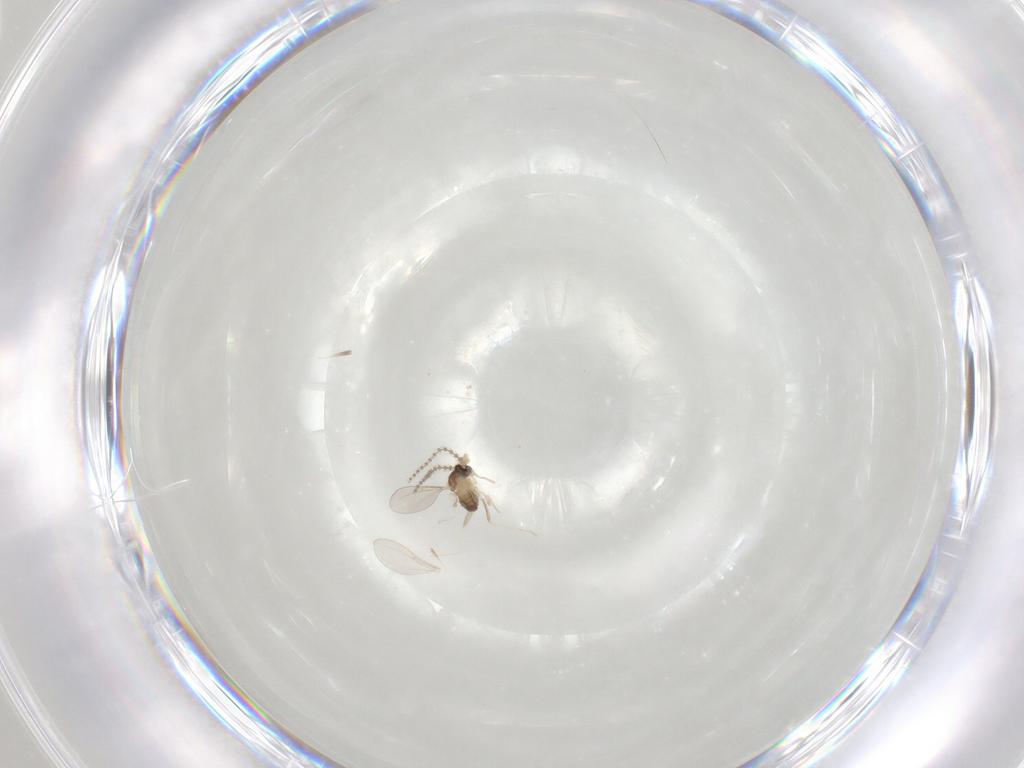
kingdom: Animalia
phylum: Arthropoda
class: Insecta
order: Diptera
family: Cecidomyiidae
